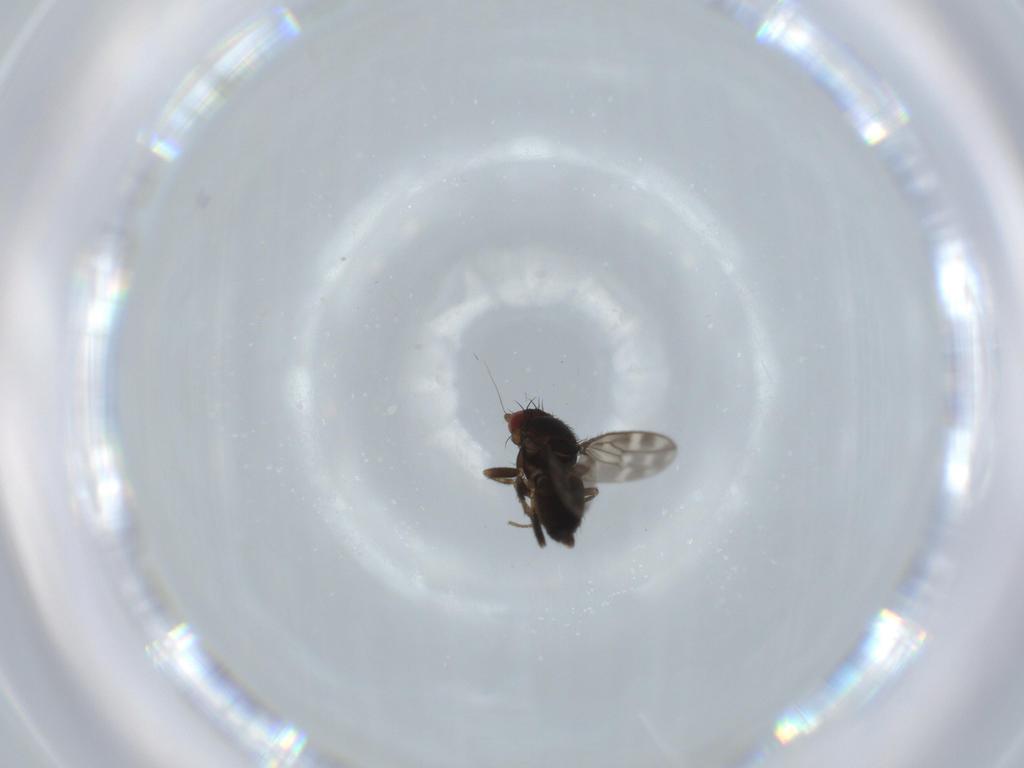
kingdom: Animalia
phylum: Arthropoda
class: Insecta
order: Diptera
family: Sphaeroceridae
